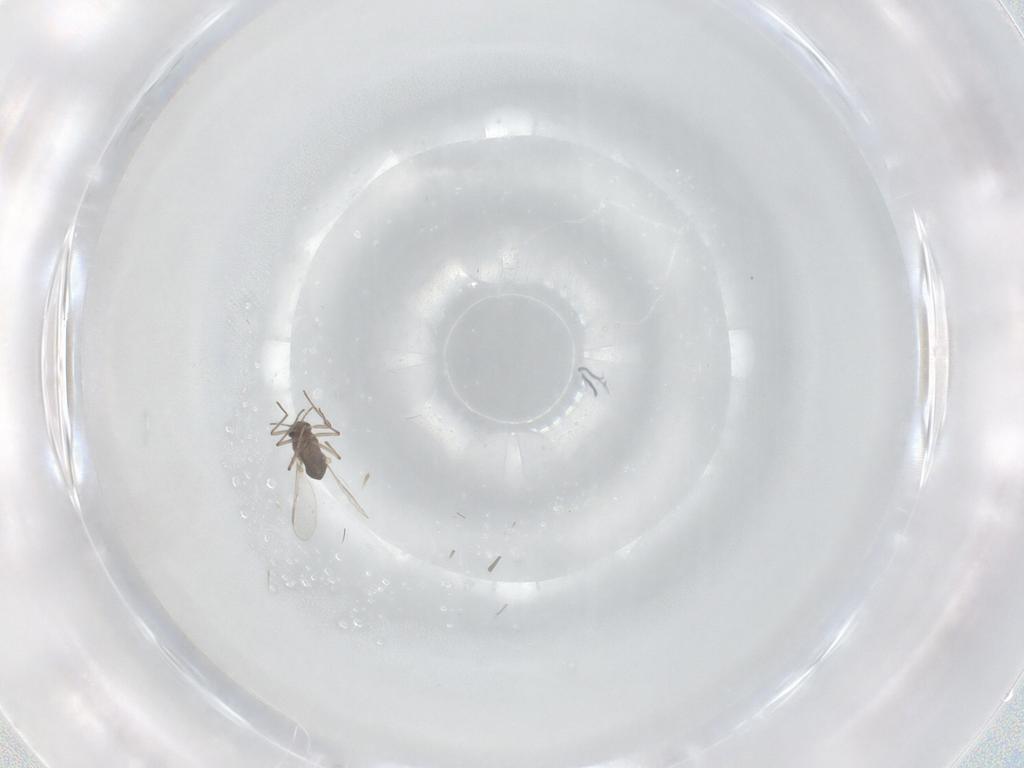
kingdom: Animalia
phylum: Arthropoda
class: Insecta
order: Diptera
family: Chironomidae
